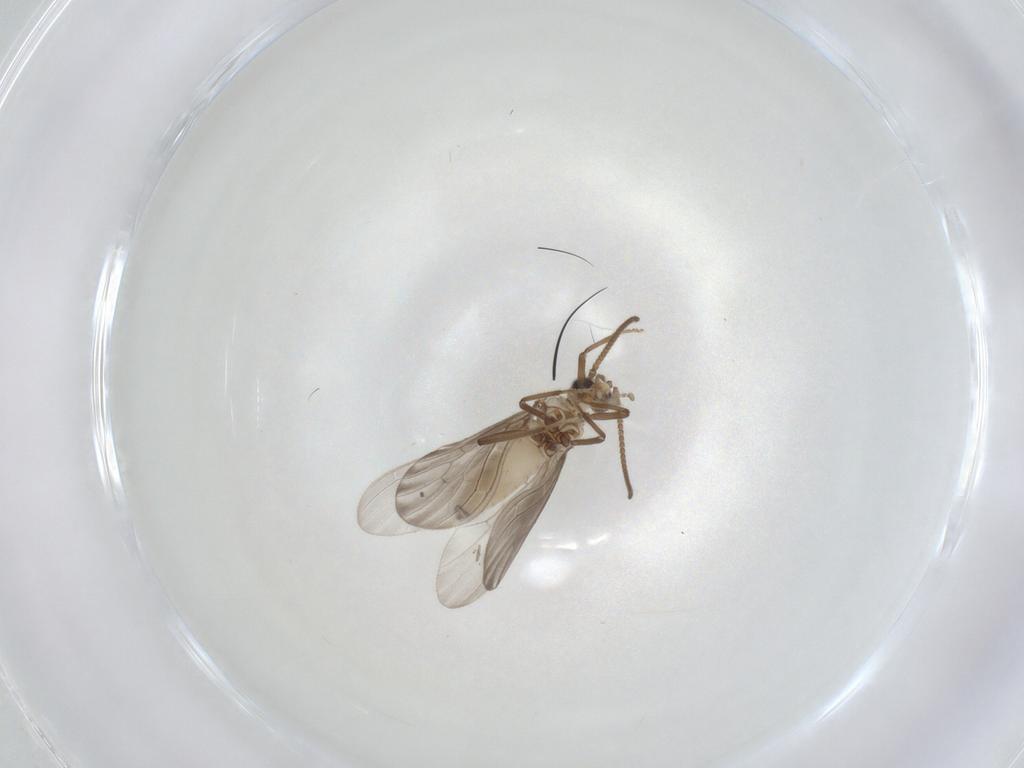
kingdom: Animalia
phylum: Arthropoda
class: Insecta
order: Neuroptera
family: Coniopterygidae
